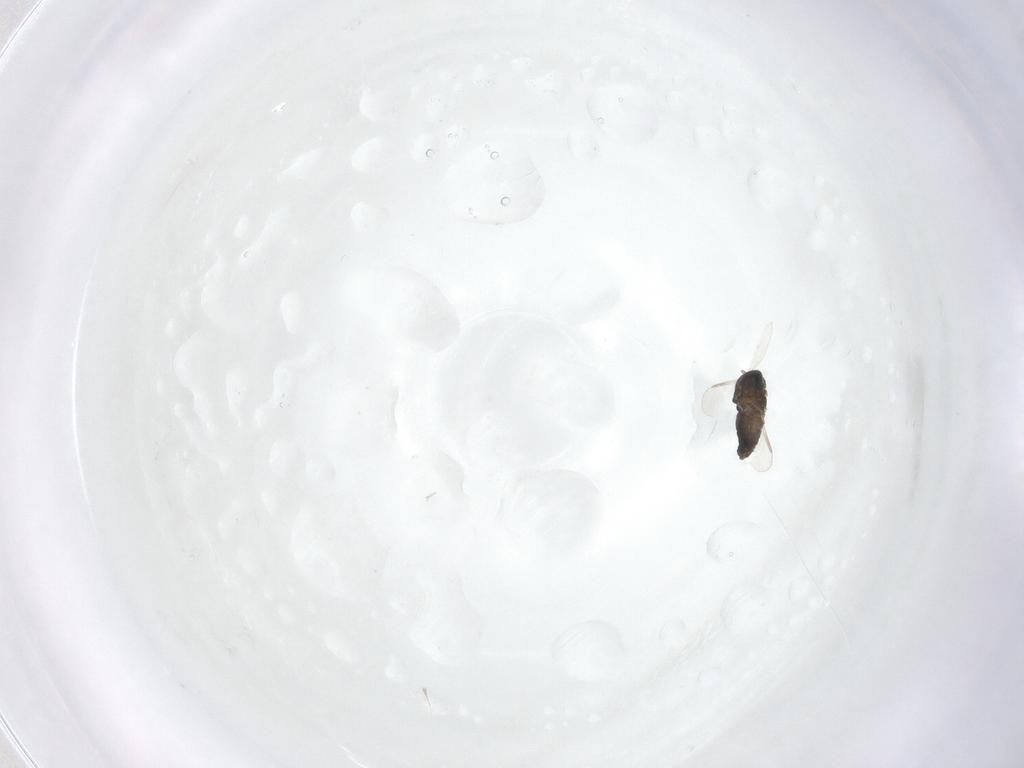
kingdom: Animalia
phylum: Arthropoda
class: Insecta
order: Diptera
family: Chironomidae
